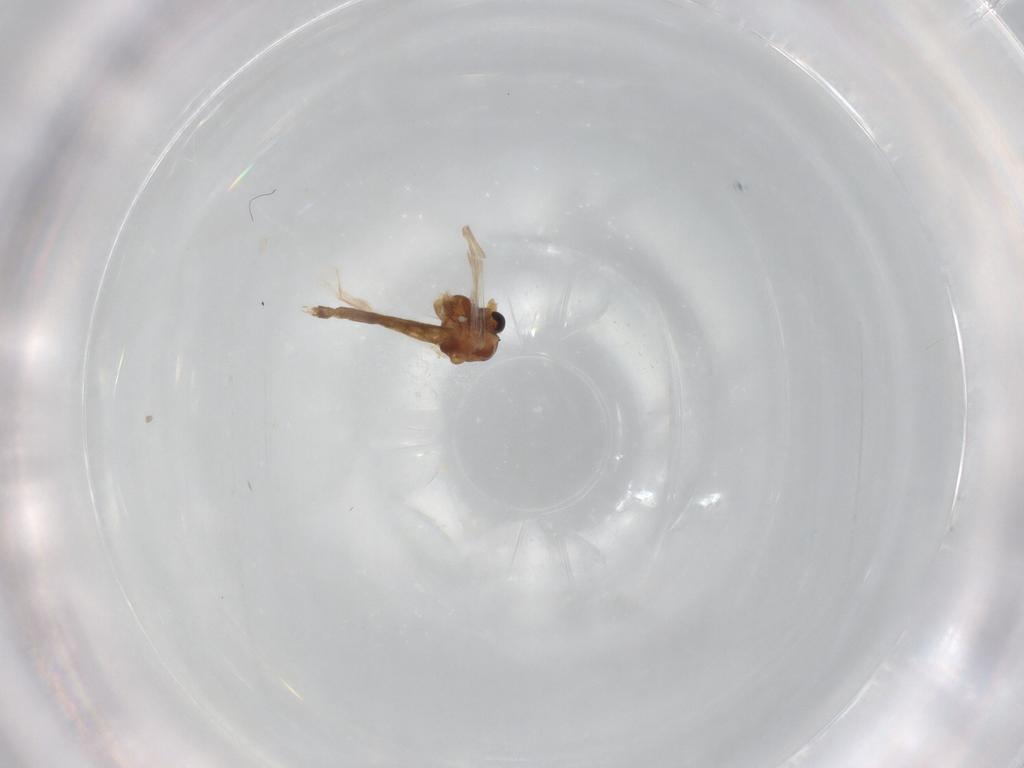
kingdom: Animalia
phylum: Arthropoda
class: Insecta
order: Diptera
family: Chironomidae
